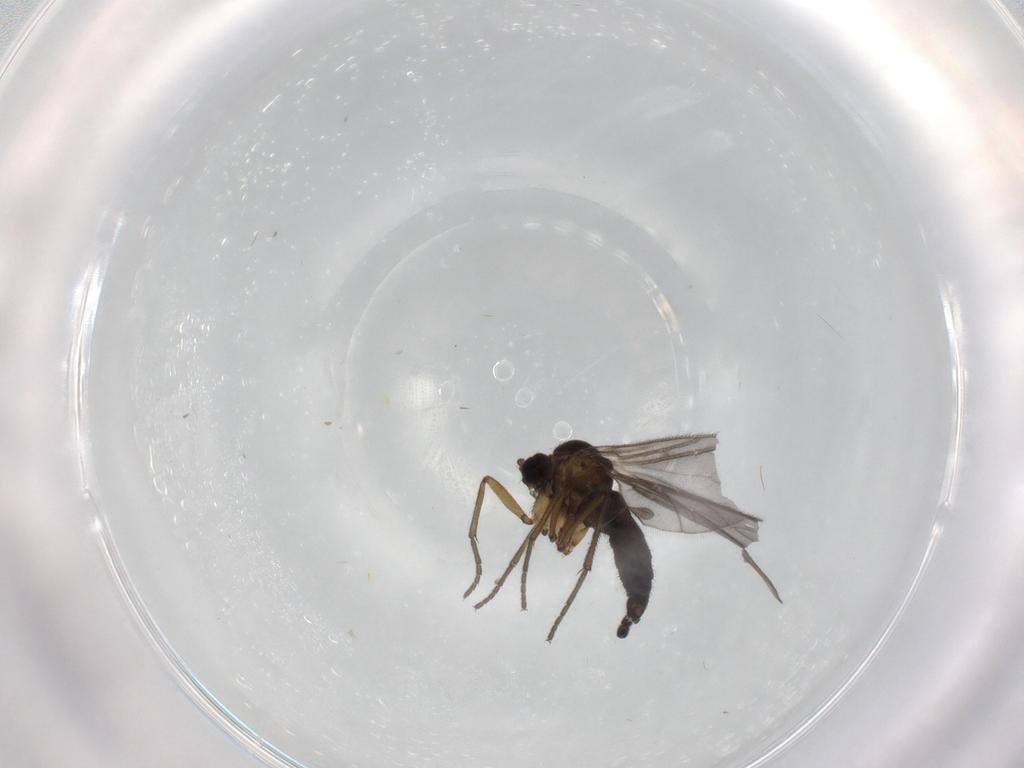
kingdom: Animalia
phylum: Arthropoda
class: Insecta
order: Diptera
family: Sciaridae
